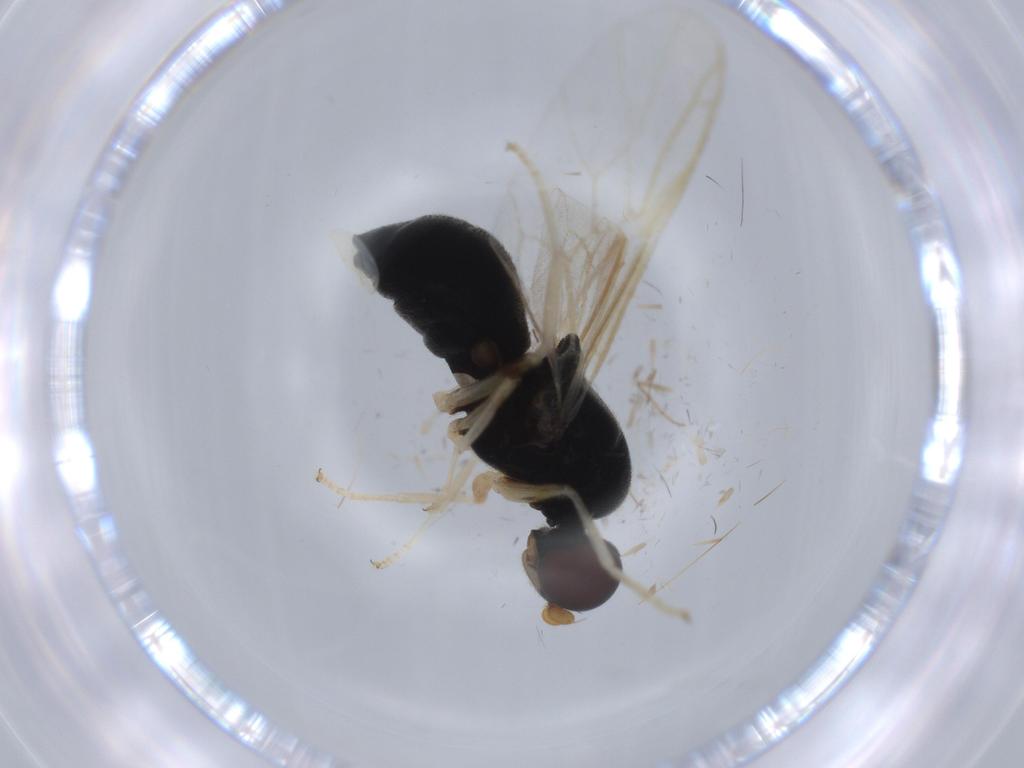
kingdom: Animalia
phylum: Arthropoda
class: Insecta
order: Diptera
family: Stratiomyidae
